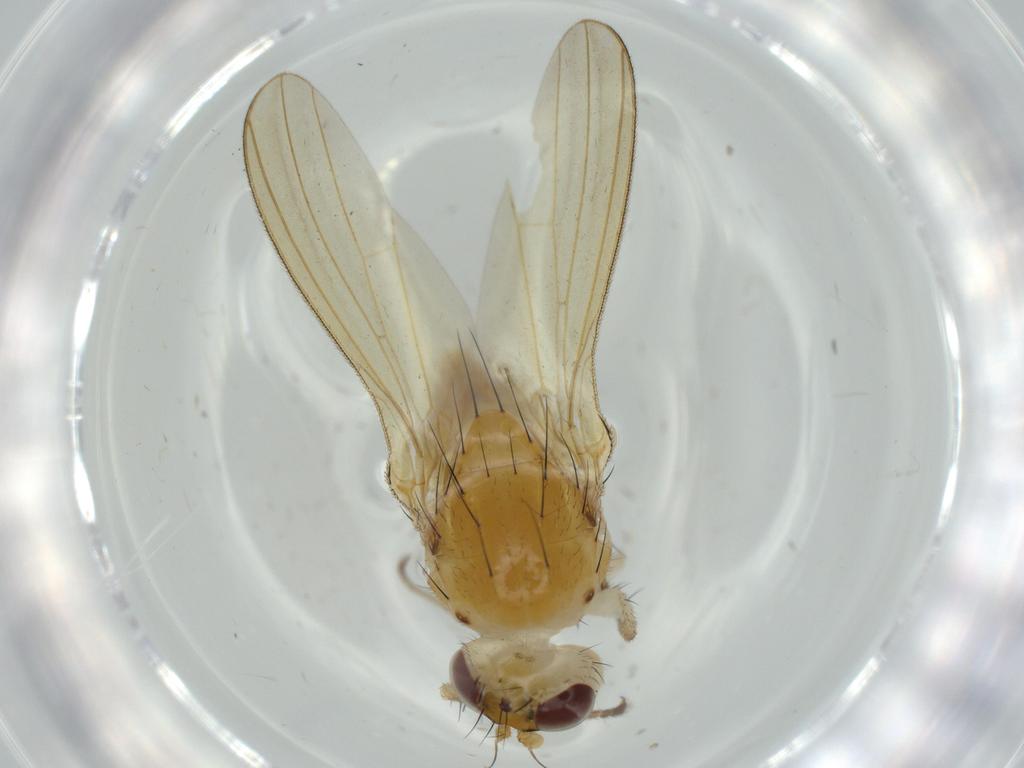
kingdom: Animalia
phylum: Arthropoda
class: Insecta
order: Diptera
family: Lauxaniidae
